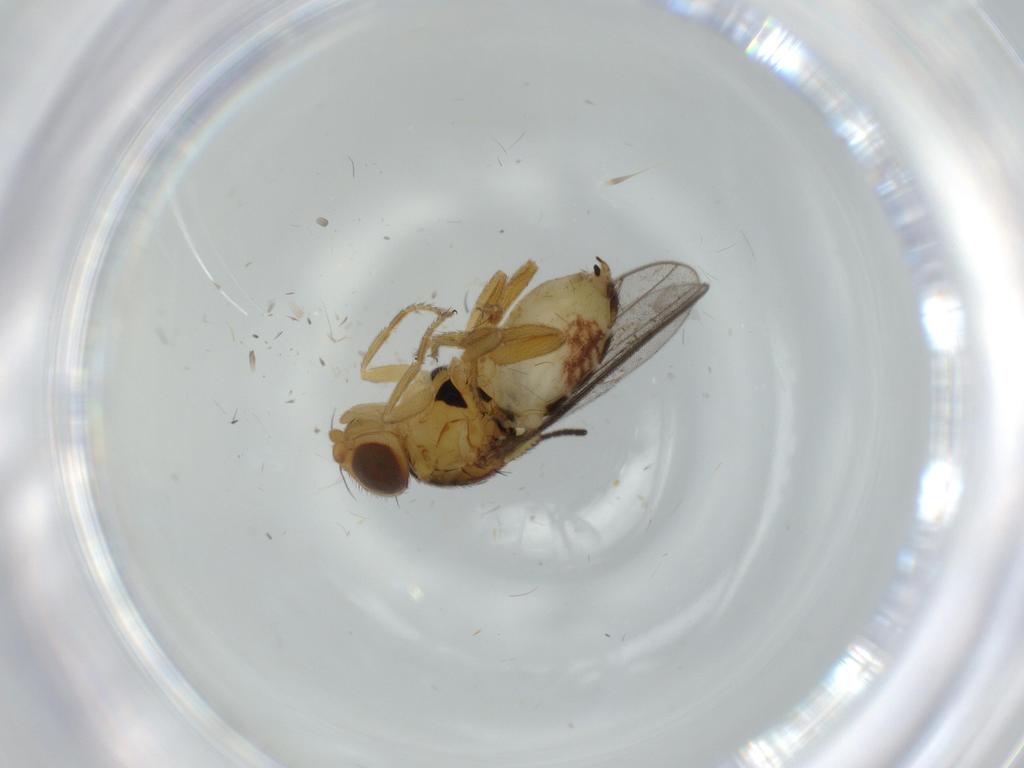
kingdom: Animalia
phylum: Arthropoda
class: Insecta
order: Diptera
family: Chloropidae
